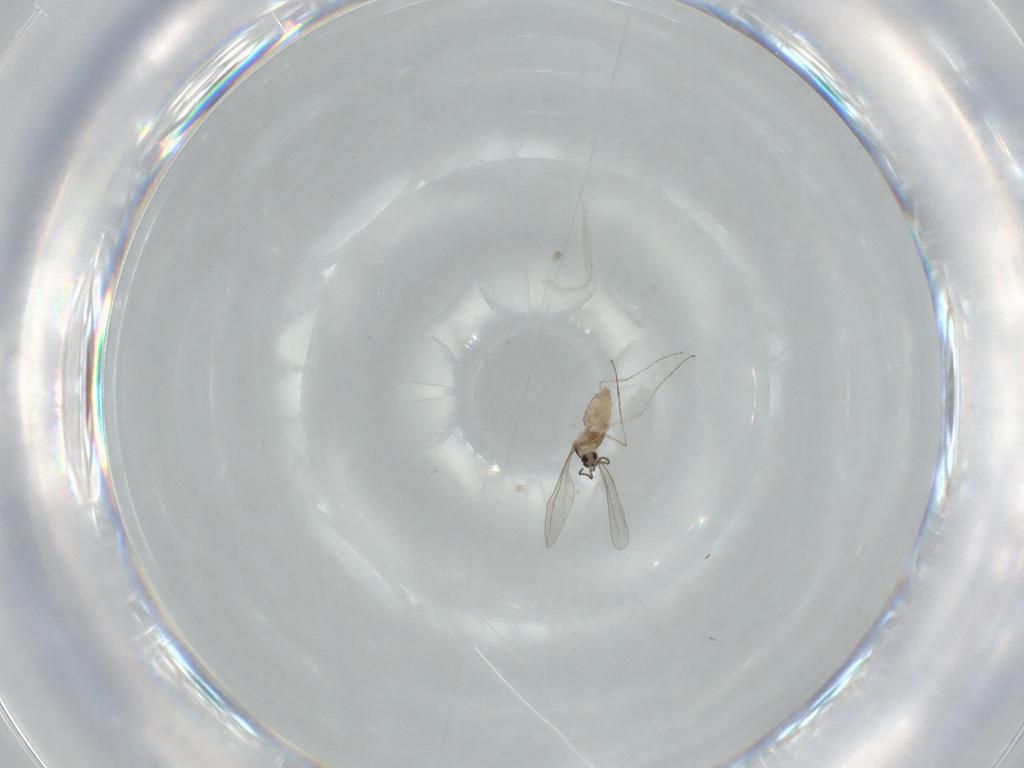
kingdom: Animalia
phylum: Arthropoda
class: Insecta
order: Diptera
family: Cecidomyiidae
